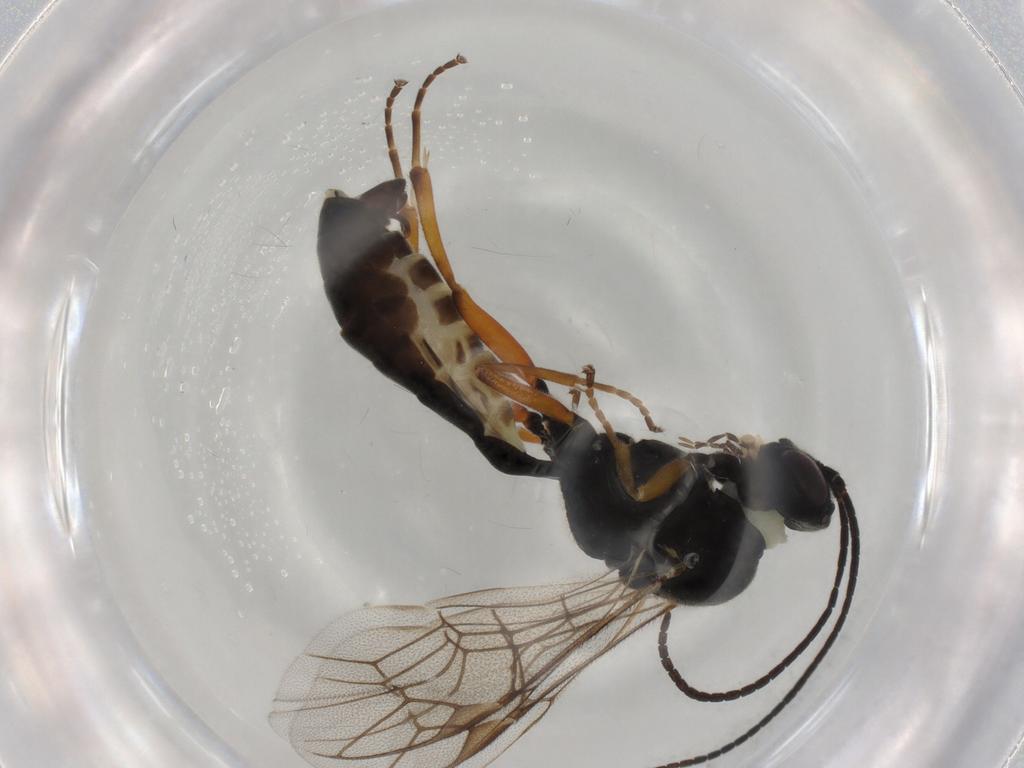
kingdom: Animalia
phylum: Arthropoda
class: Insecta
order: Hymenoptera
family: Ichneumonidae
